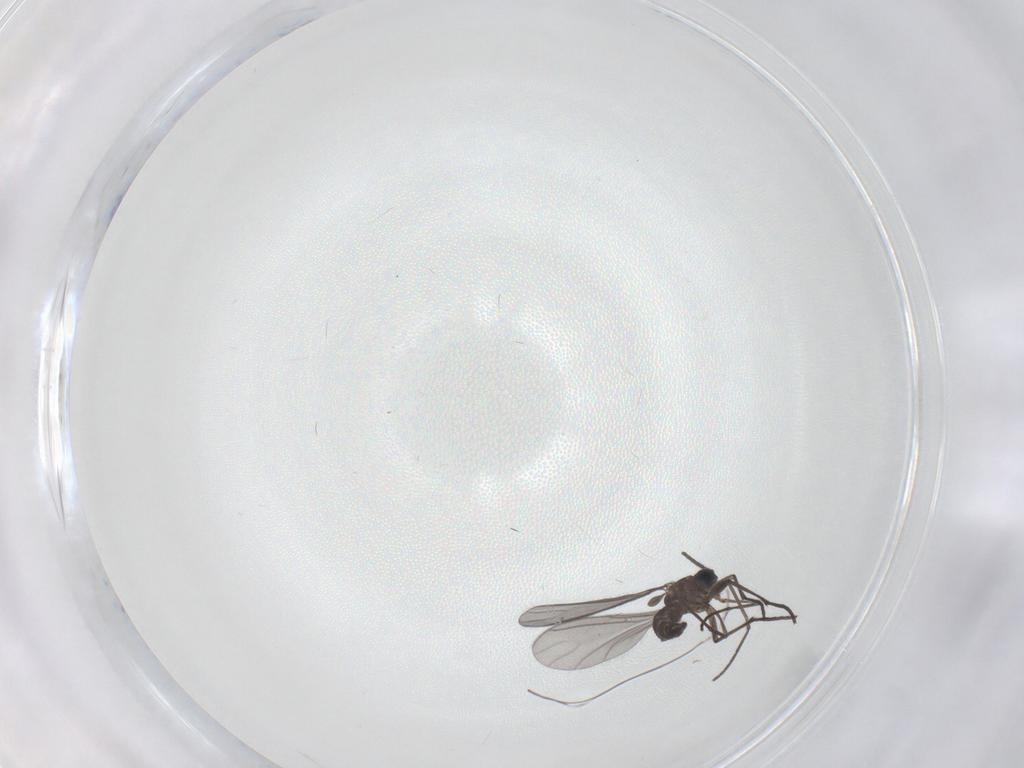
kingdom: Animalia
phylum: Arthropoda
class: Insecta
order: Diptera
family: Sciaridae
